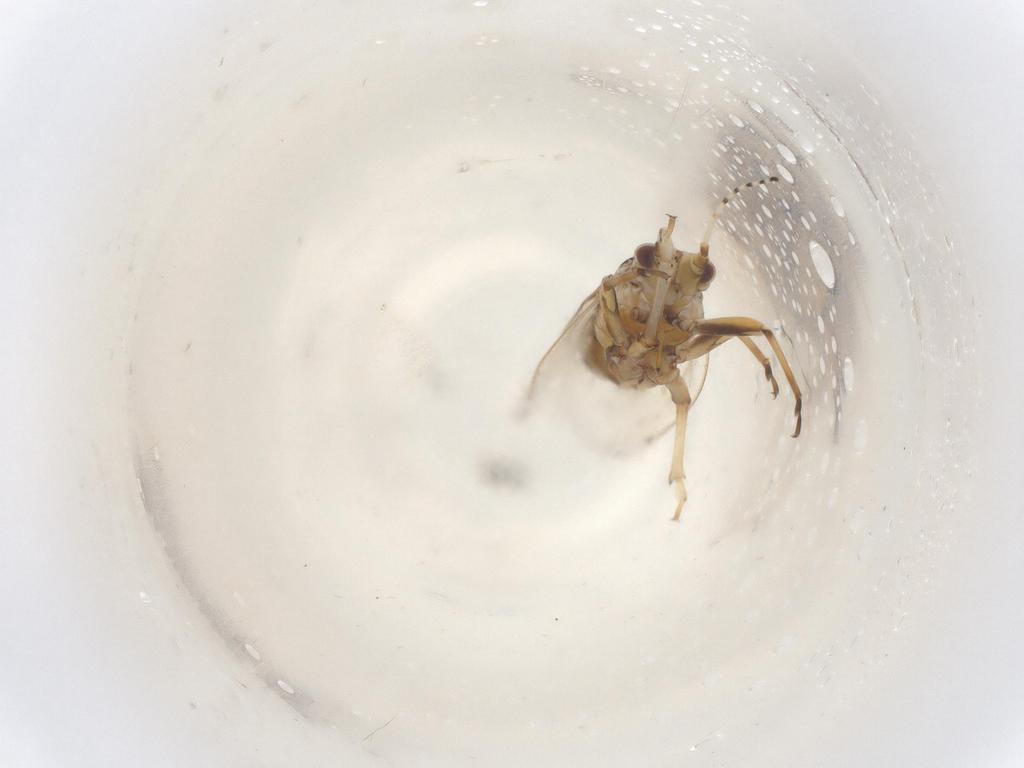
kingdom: Animalia
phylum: Arthropoda
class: Insecta
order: Hymenoptera
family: Formicidae
